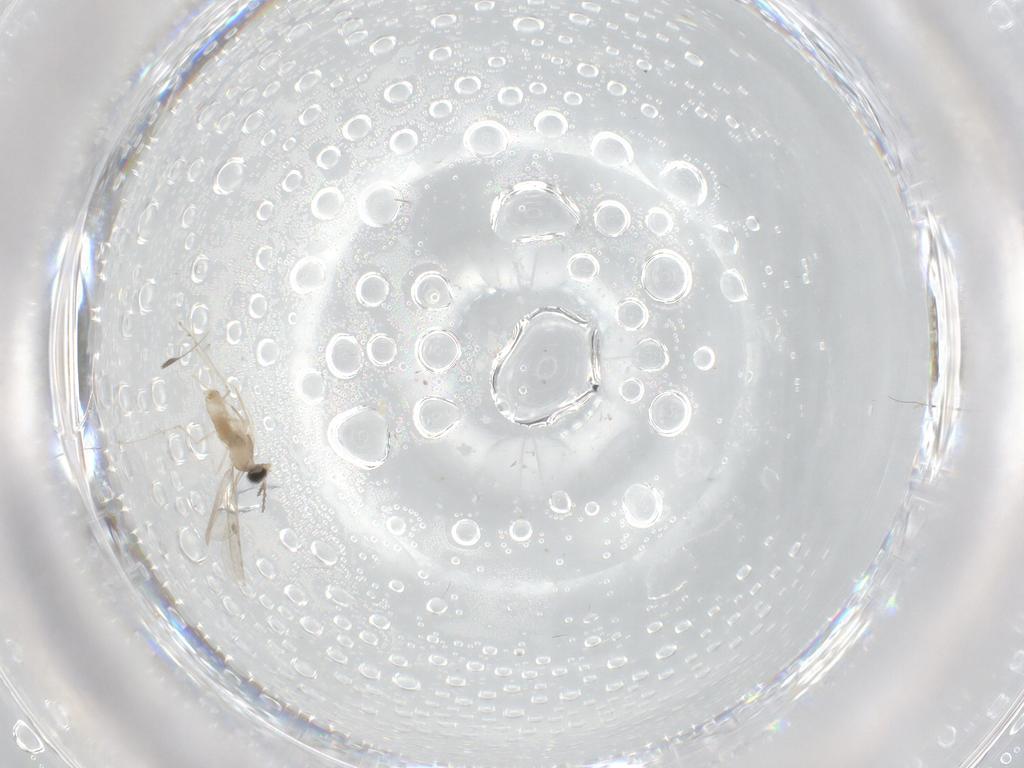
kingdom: Animalia
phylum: Arthropoda
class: Insecta
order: Diptera
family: Cecidomyiidae
